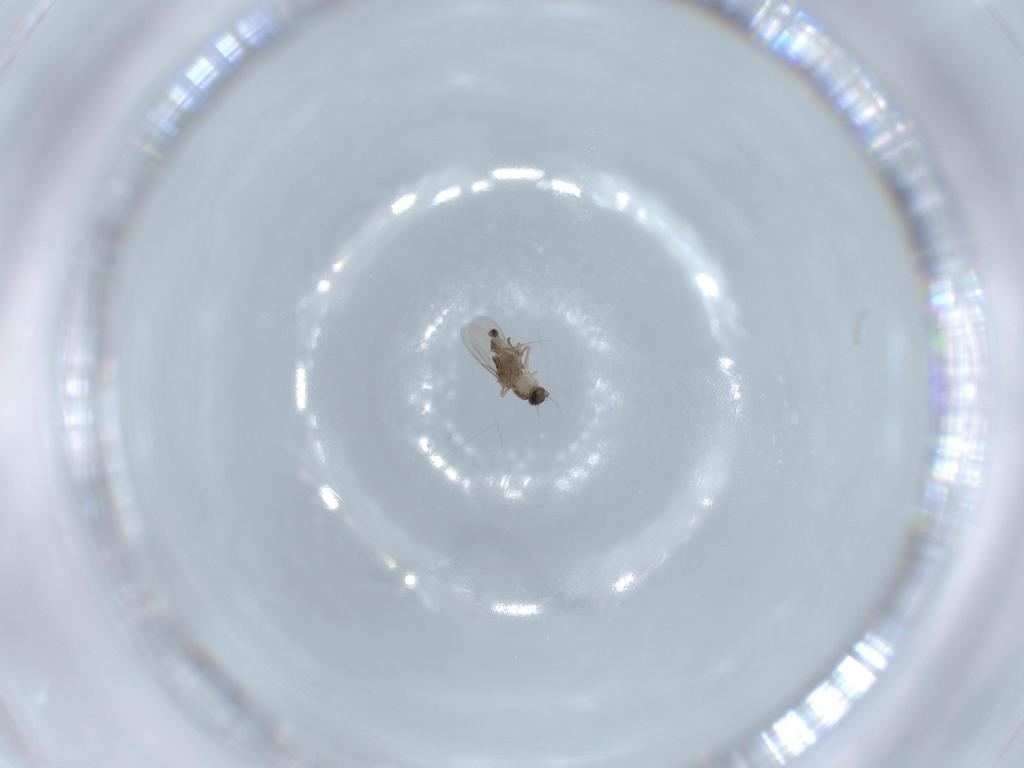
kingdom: Animalia
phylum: Arthropoda
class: Insecta
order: Diptera
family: Phoridae
